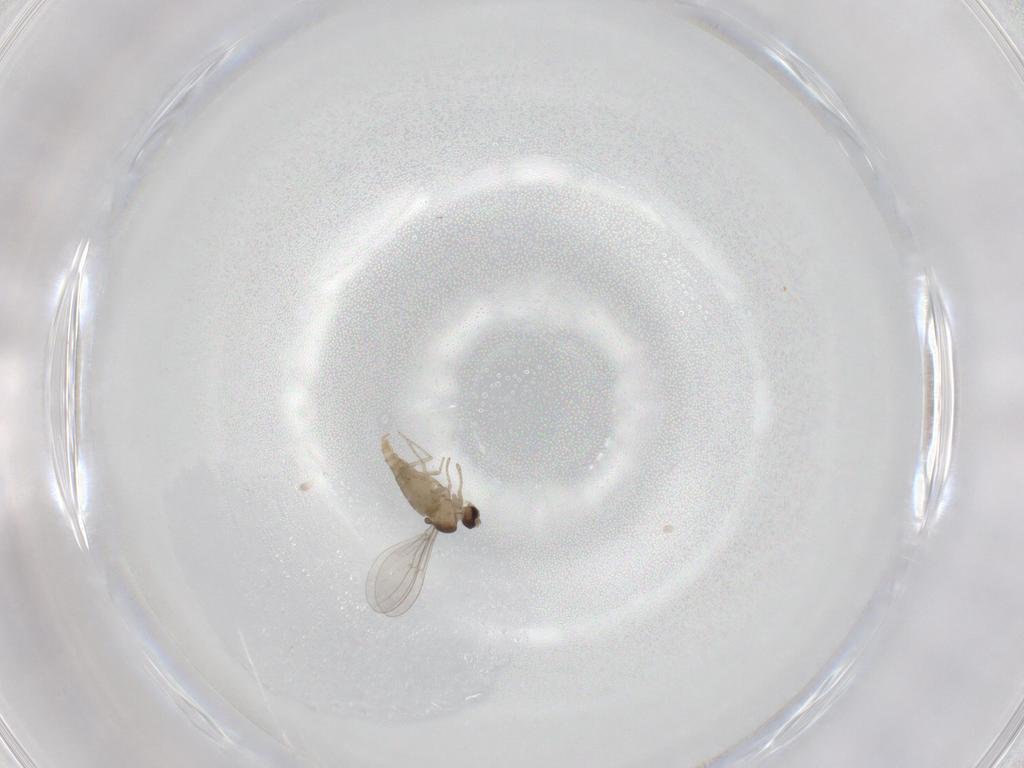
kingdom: Animalia
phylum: Arthropoda
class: Insecta
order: Diptera
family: Cecidomyiidae
